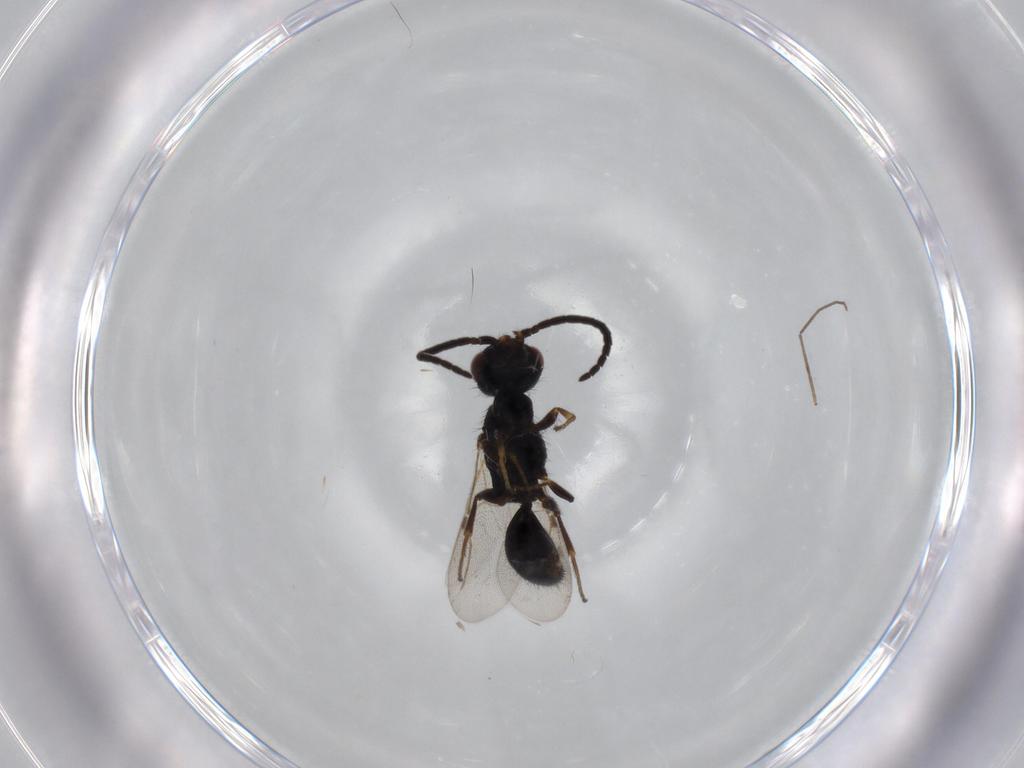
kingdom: Animalia
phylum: Arthropoda
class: Insecta
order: Hymenoptera
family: Bethylidae
